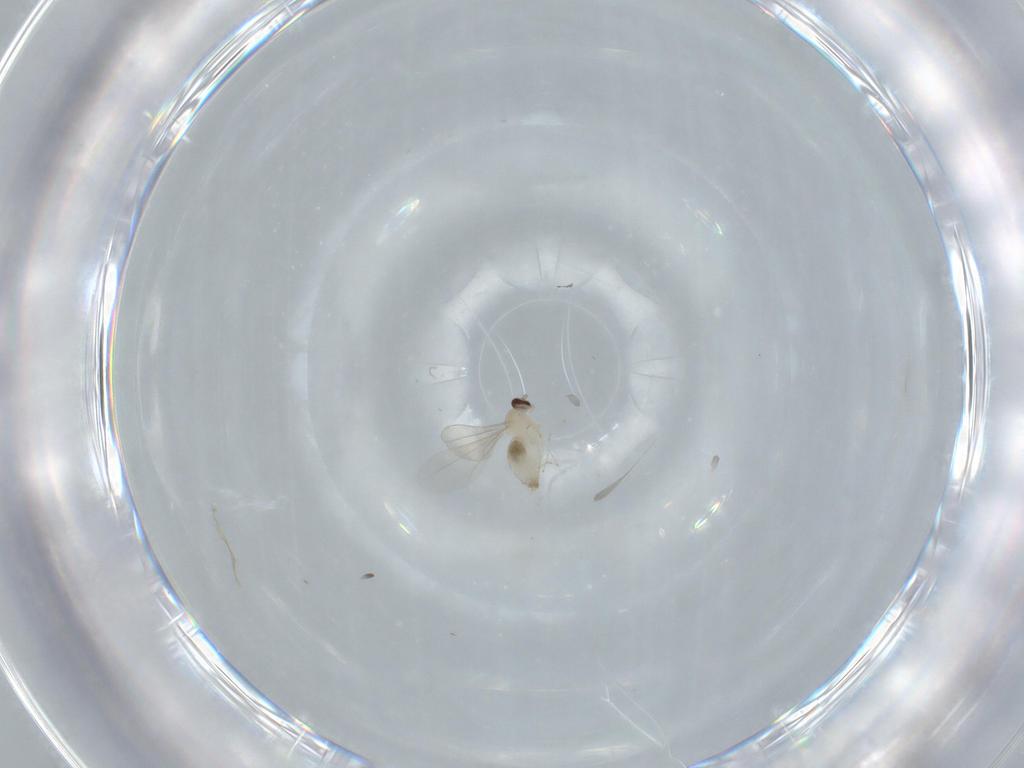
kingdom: Animalia
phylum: Arthropoda
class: Insecta
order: Diptera
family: Cecidomyiidae
